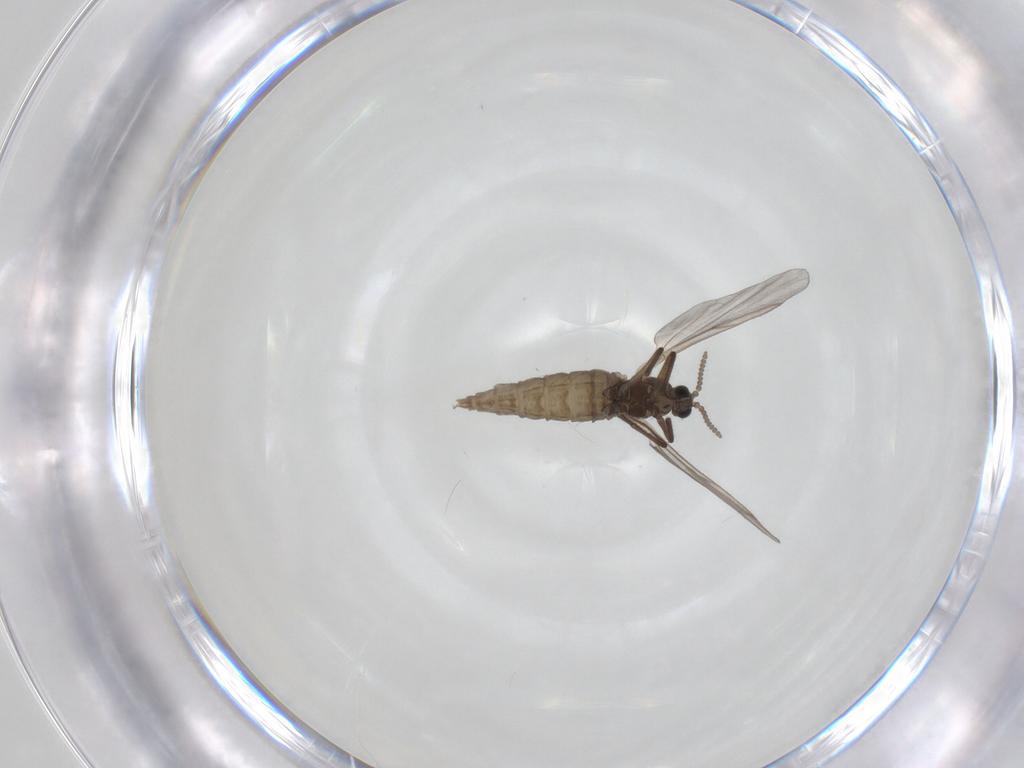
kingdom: Animalia
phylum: Arthropoda
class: Insecta
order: Diptera
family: Cecidomyiidae
